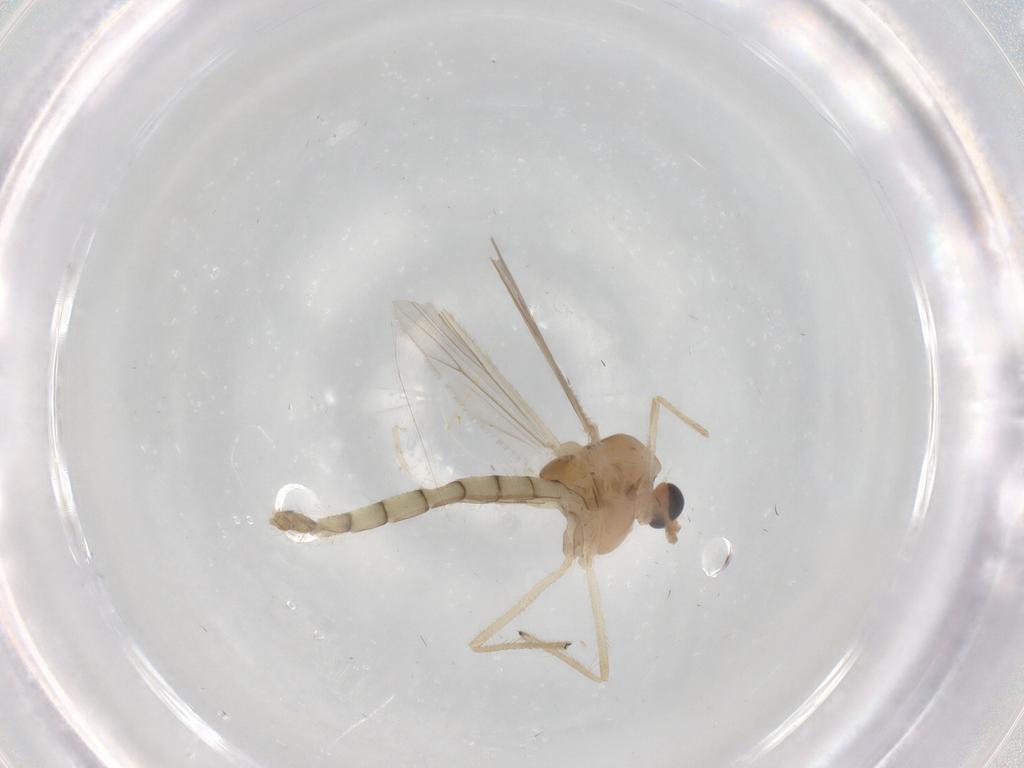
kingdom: Animalia
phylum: Arthropoda
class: Insecta
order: Diptera
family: Chironomidae
